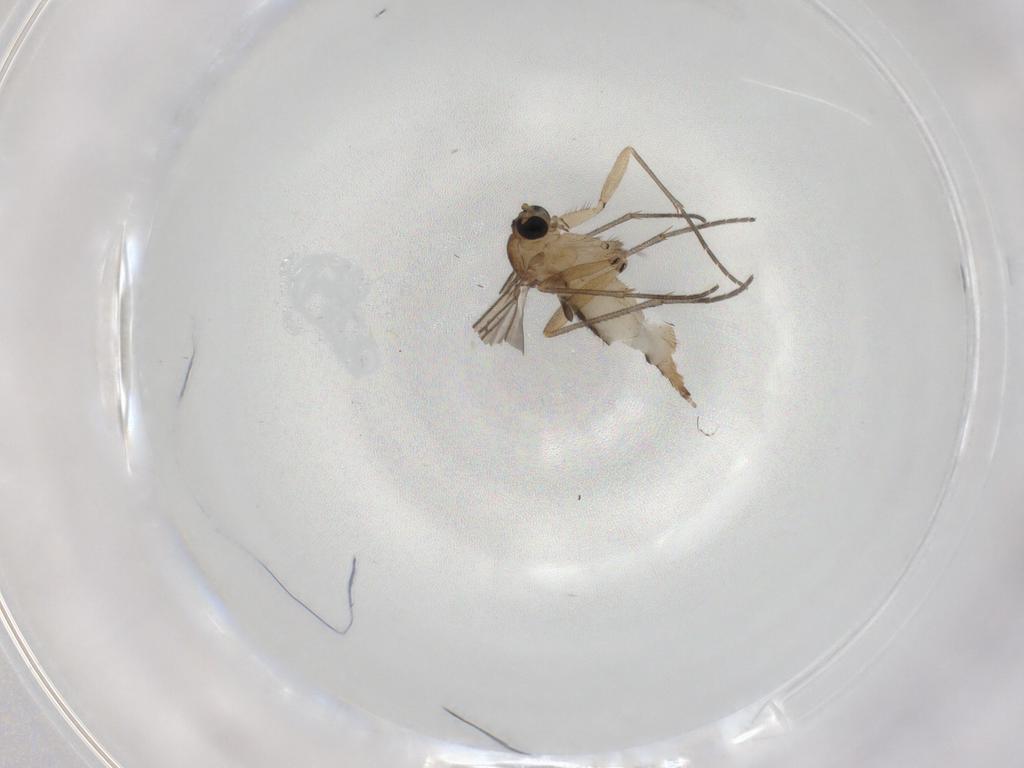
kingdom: Animalia
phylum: Arthropoda
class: Insecta
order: Diptera
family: Sciaridae
